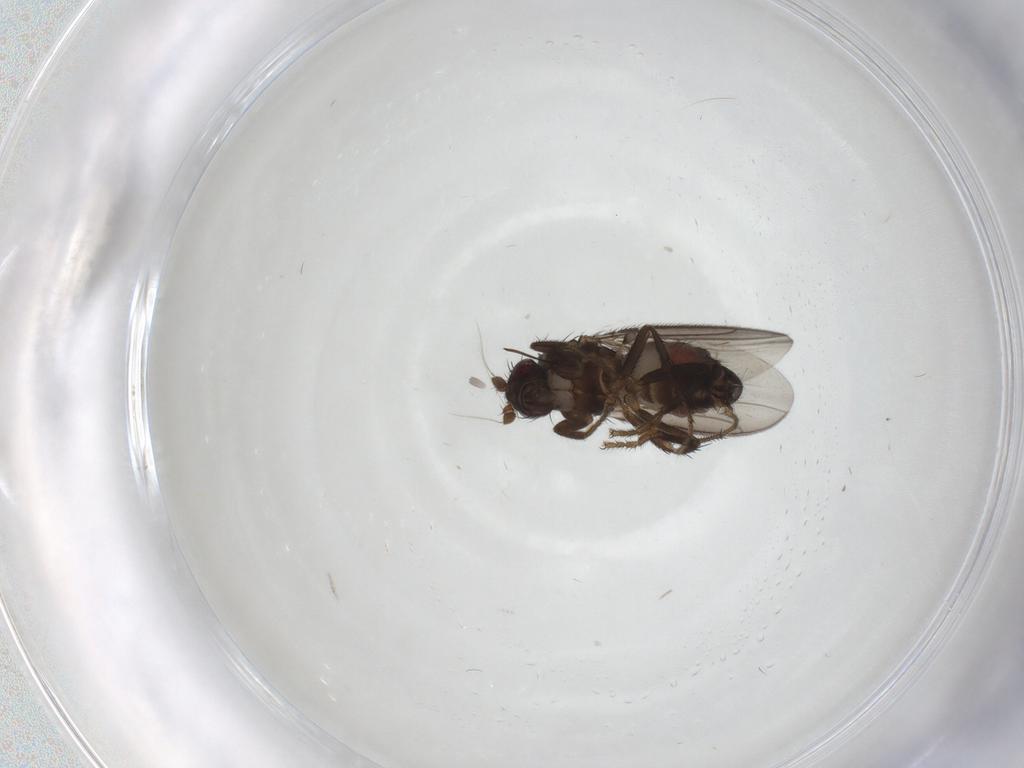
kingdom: Animalia
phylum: Arthropoda
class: Insecta
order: Diptera
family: Sphaeroceridae
